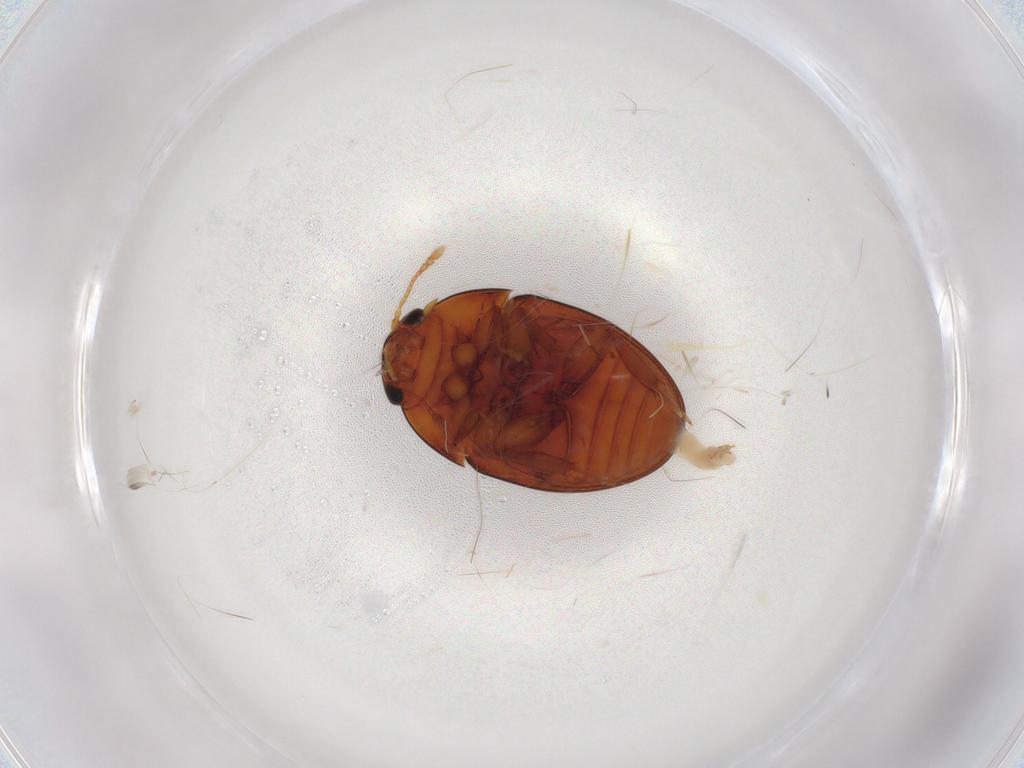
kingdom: Animalia
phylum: Arthropoda
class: Insecta
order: Coleoptera
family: Phalacridae
